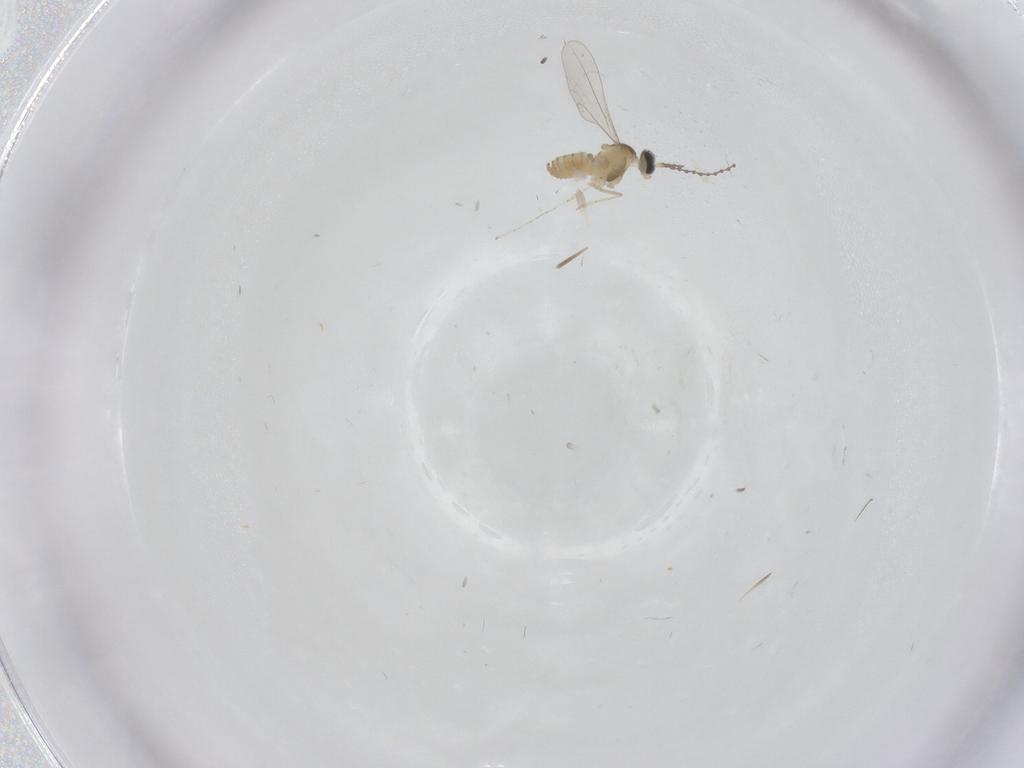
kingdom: Animalia
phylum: Arthropoda
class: Insecta
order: Diptera
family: Cecidomyiidae
